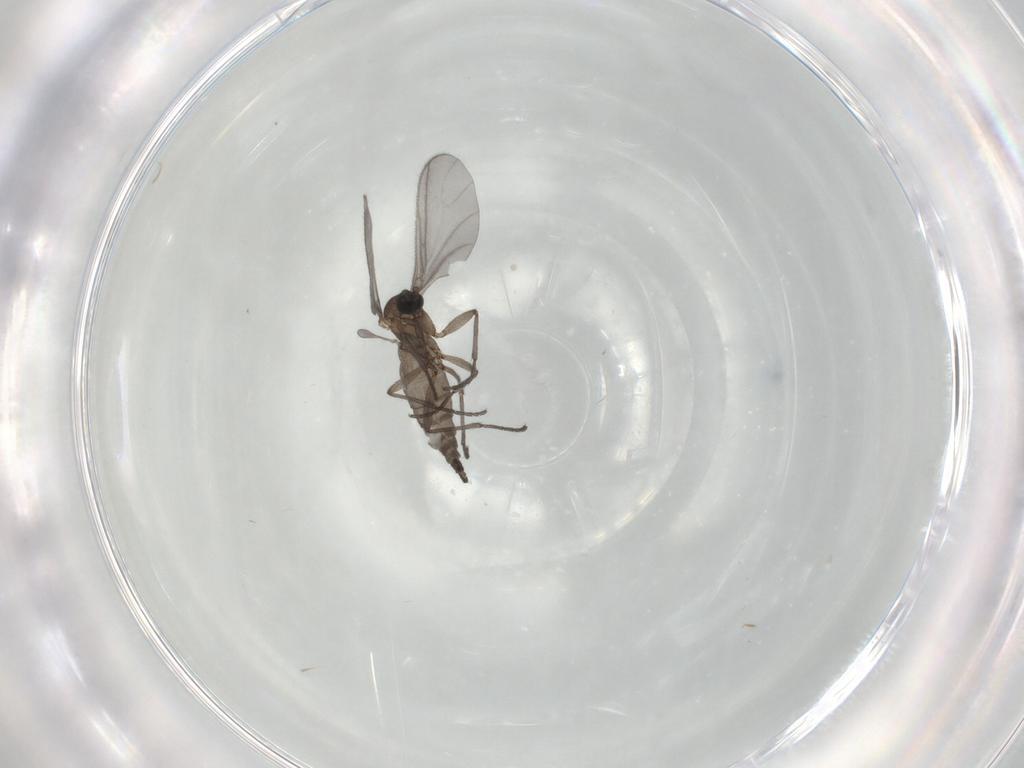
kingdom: Animalia
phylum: Arthropoda
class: Insecta
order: Diptera
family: Sciaridae
